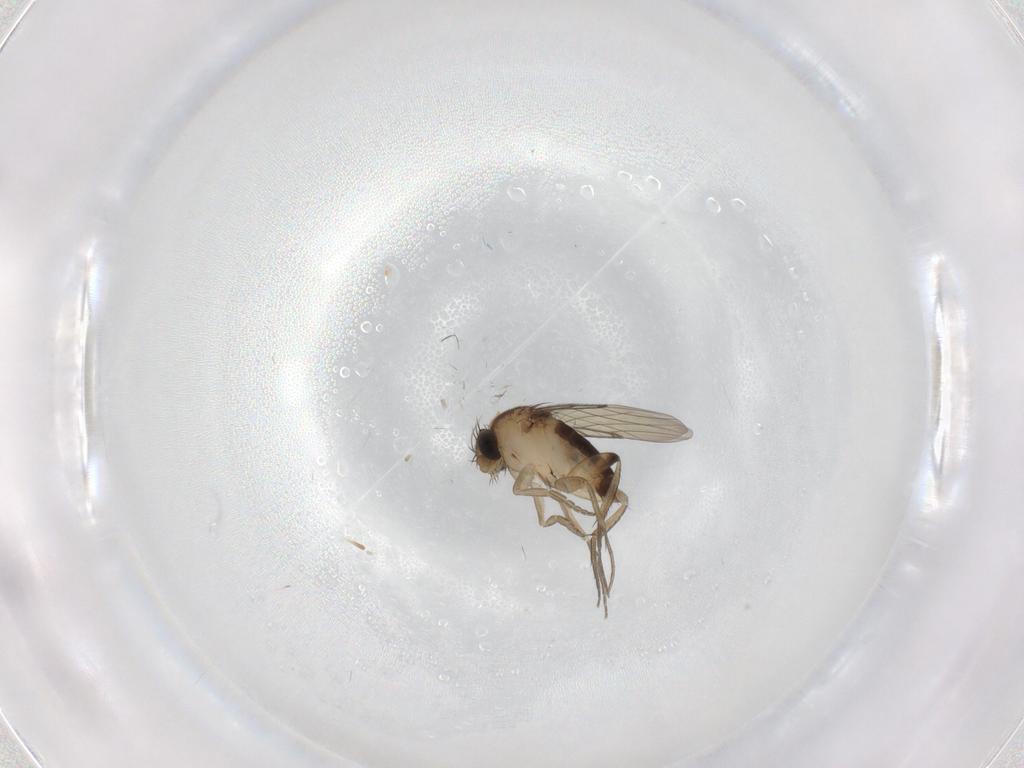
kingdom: Animalia
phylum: Arthropoda
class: Insecta
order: Diptera
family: Phoridae
